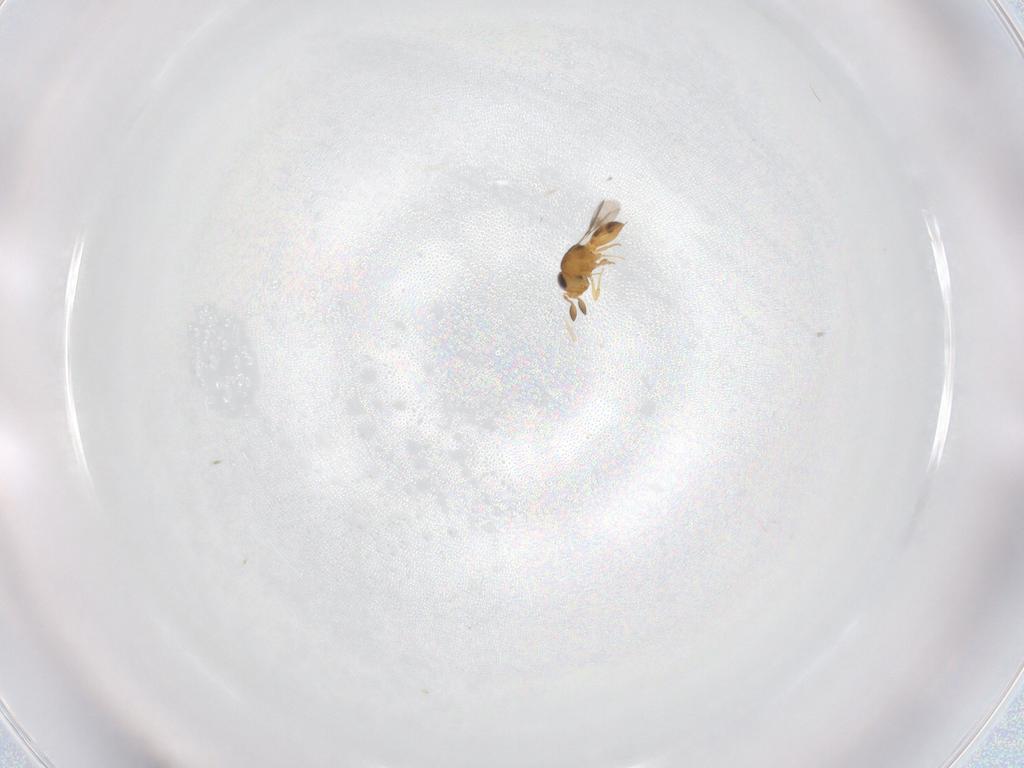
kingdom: Animalia
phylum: Arthropoda
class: Insecta
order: Hymenoptera
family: Scelionidae
